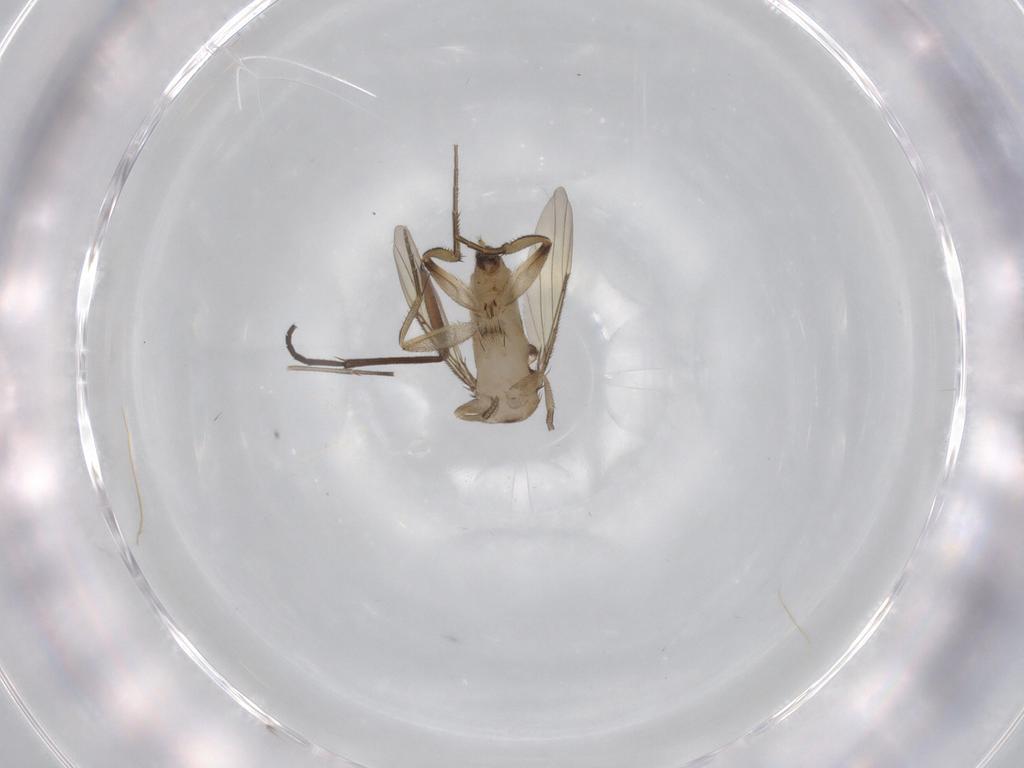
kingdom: Animalia
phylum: Arthropoda
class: Insecta
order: Diptera
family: Phoridae
